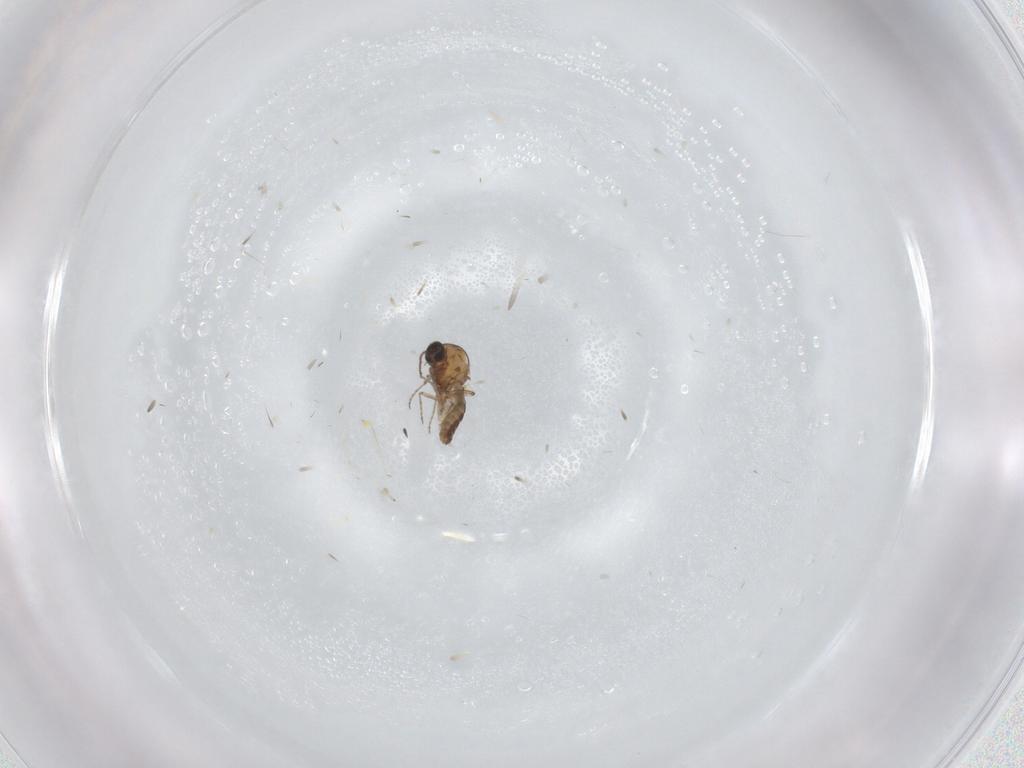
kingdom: Animalia
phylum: Arthropoda
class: Insecta
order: Diptera
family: Ceratopogonidae
